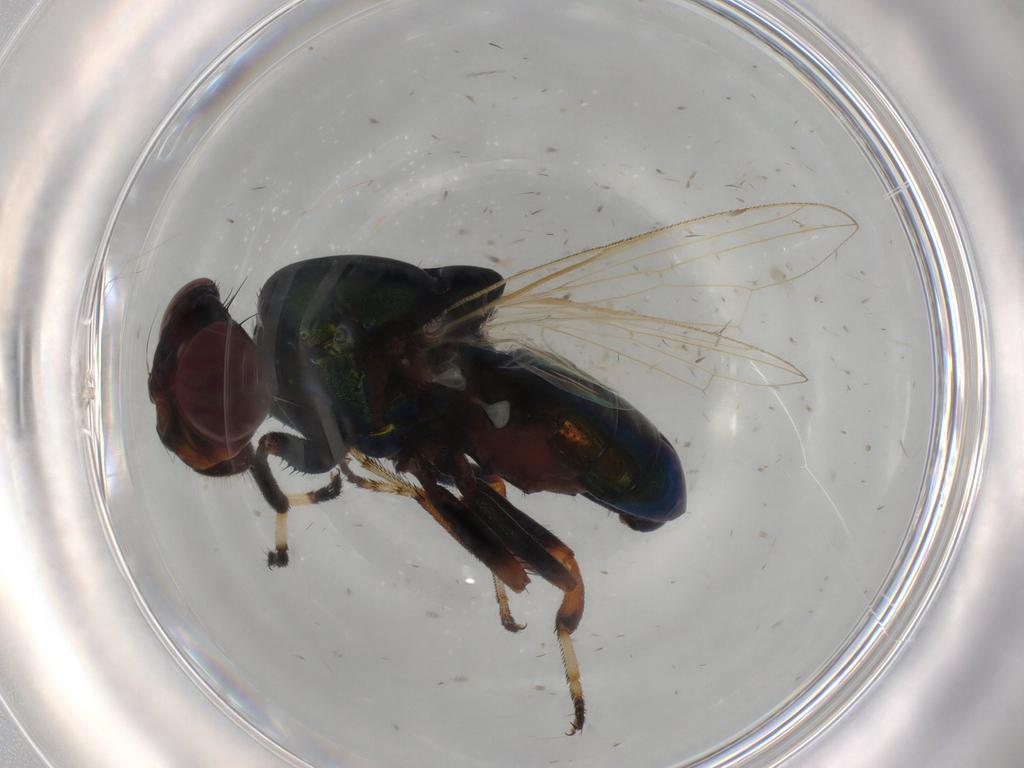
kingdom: Animalia
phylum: Arthropoda
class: Insecta
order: Diptera
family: Cecidomyiidae
